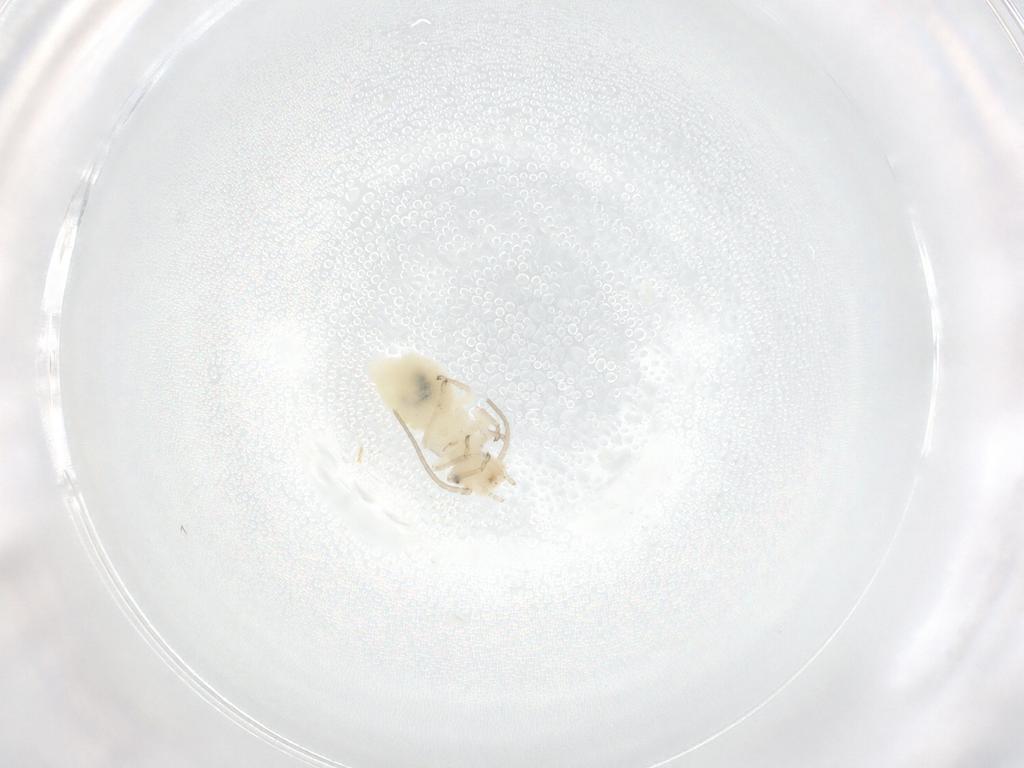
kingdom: Animalia
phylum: Arthropoda
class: Insecta
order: Psocodea
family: Caeciliusidae
